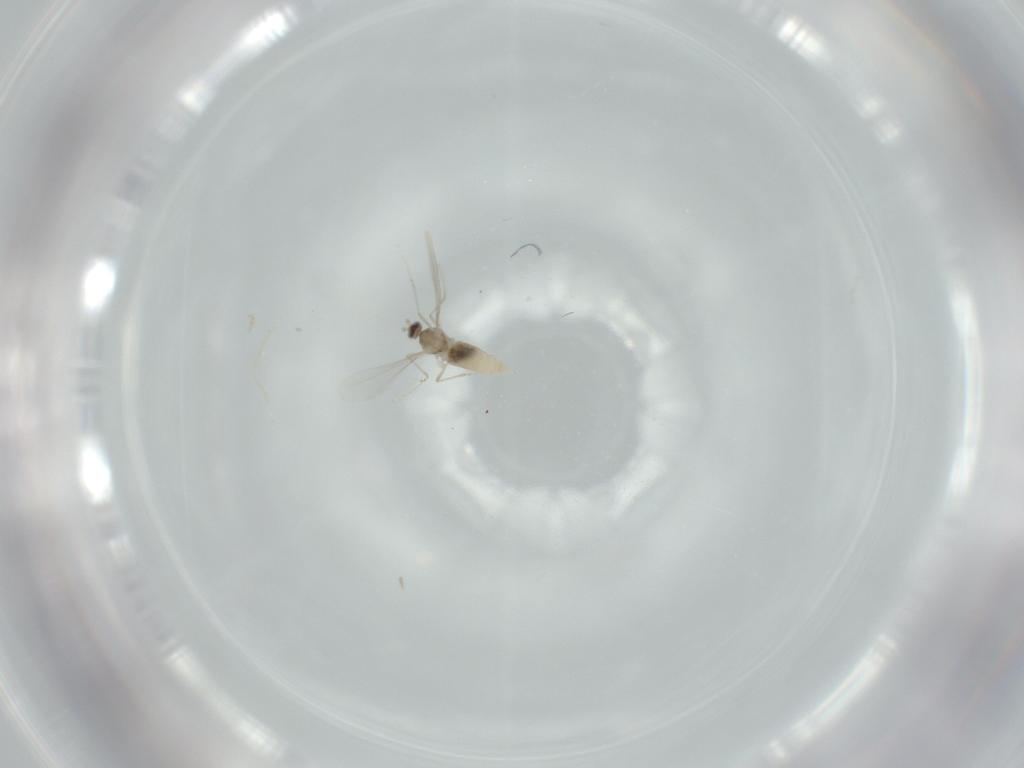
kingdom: Animalia
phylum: Arthropoda
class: Insecta
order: Diptera
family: Cecidomyiidae
